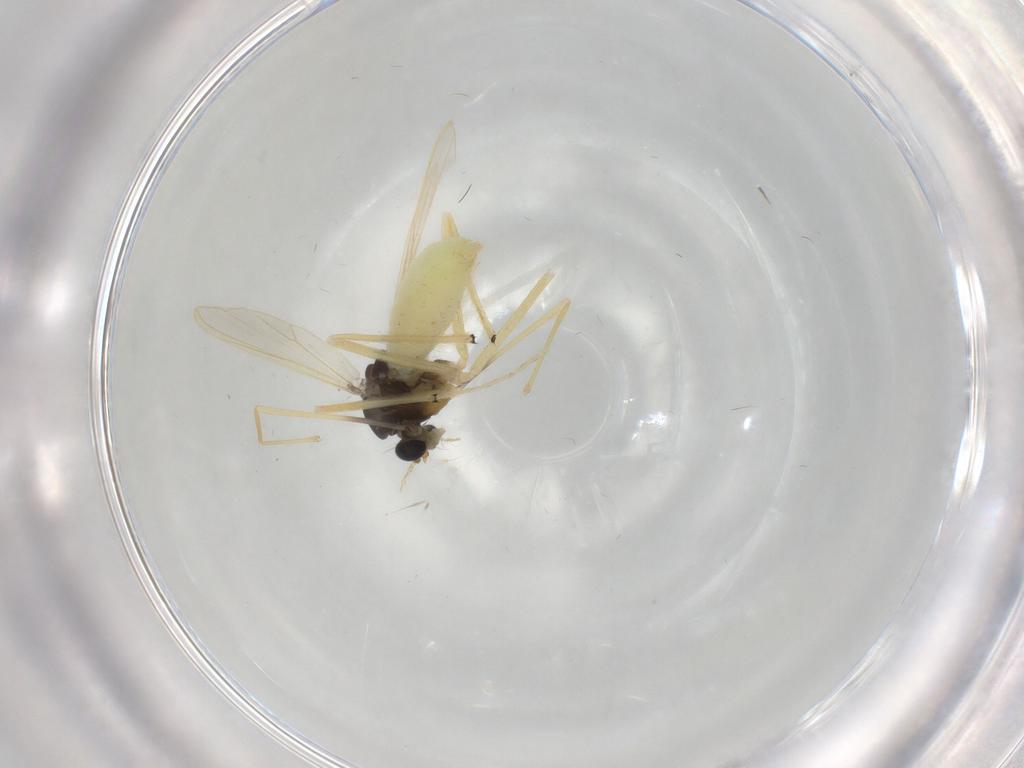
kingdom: Animalia
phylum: Arthropoda
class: Insecta
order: Diptera
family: Chironomidae
